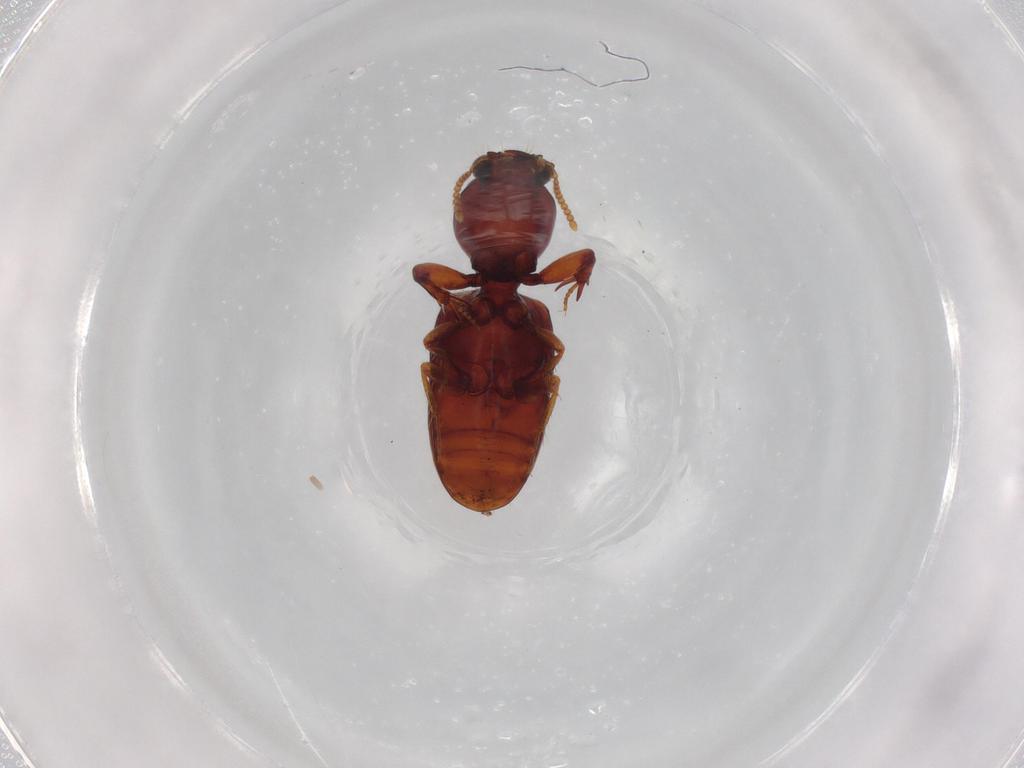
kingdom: Animalia
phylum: Arthropoda
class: Insecta
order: Coleoptera
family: Carabidae
